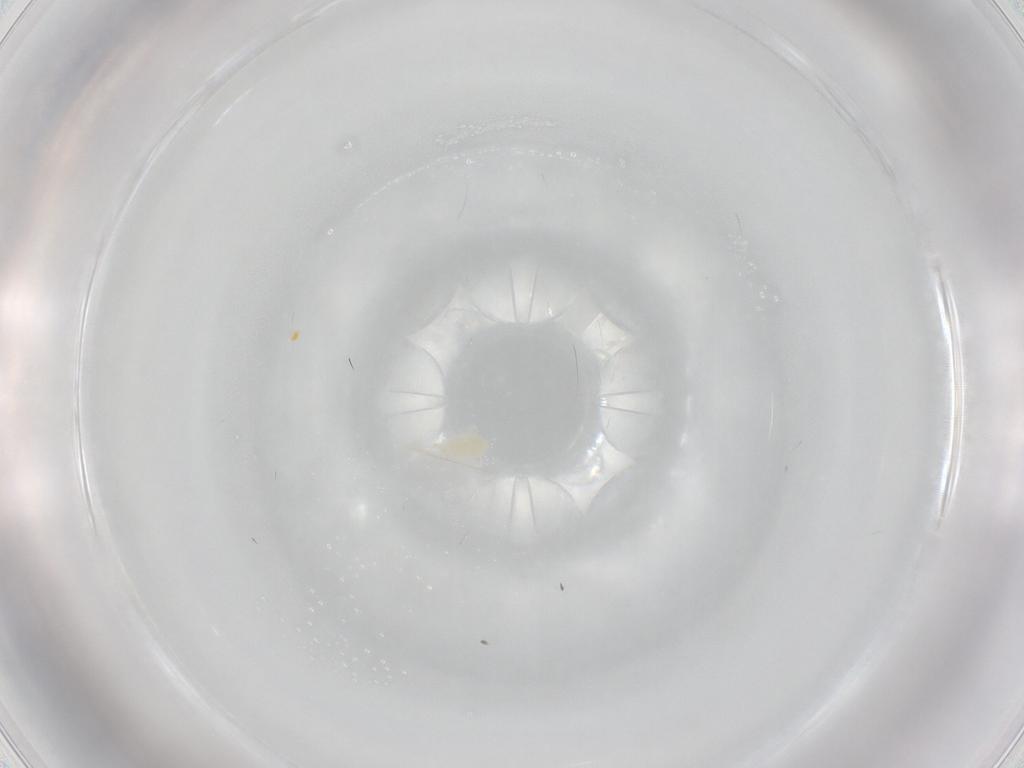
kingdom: Animalia
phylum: Arthropoda
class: Arachnida
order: Trombidiformes
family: Eupodidae
